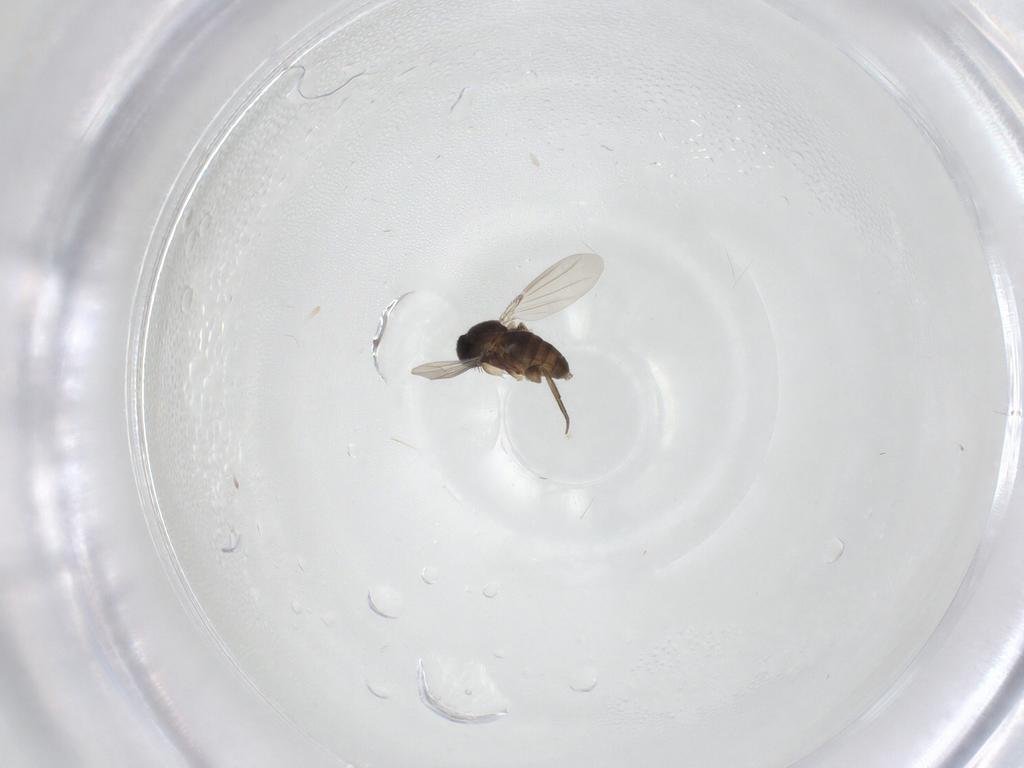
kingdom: Animalia
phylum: Arthropoda
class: Insecta
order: Diptera
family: Phoridae
